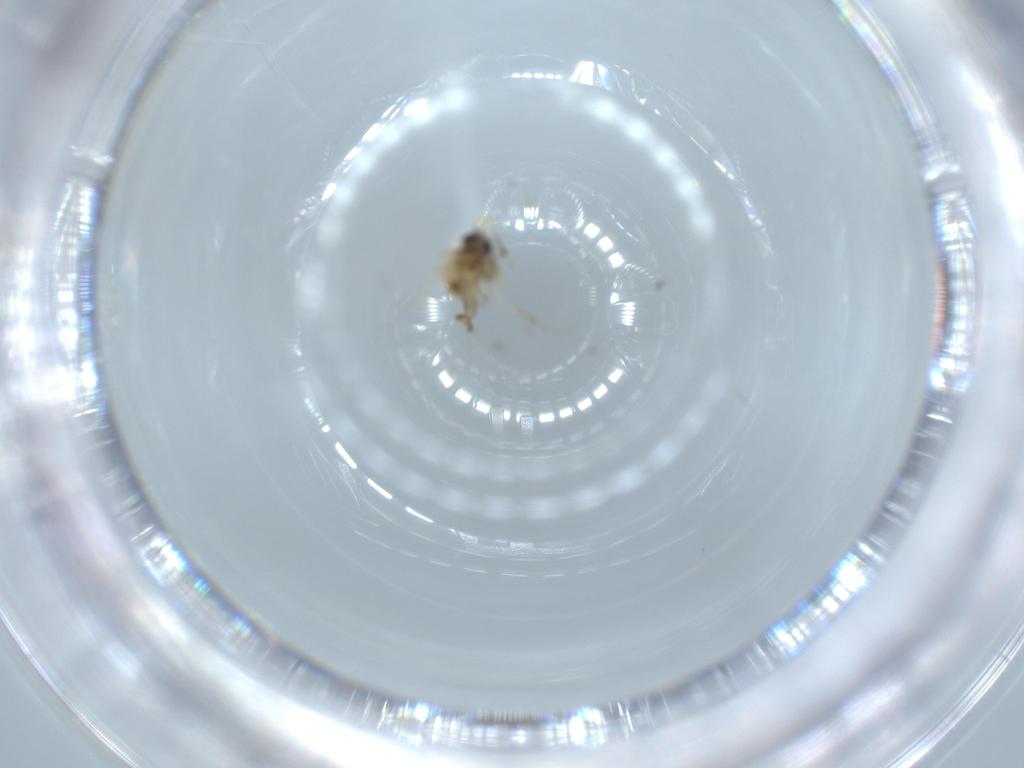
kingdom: Animalia
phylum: Arthropoda
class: Insecta
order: Diptera
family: Ceratopogonidae
